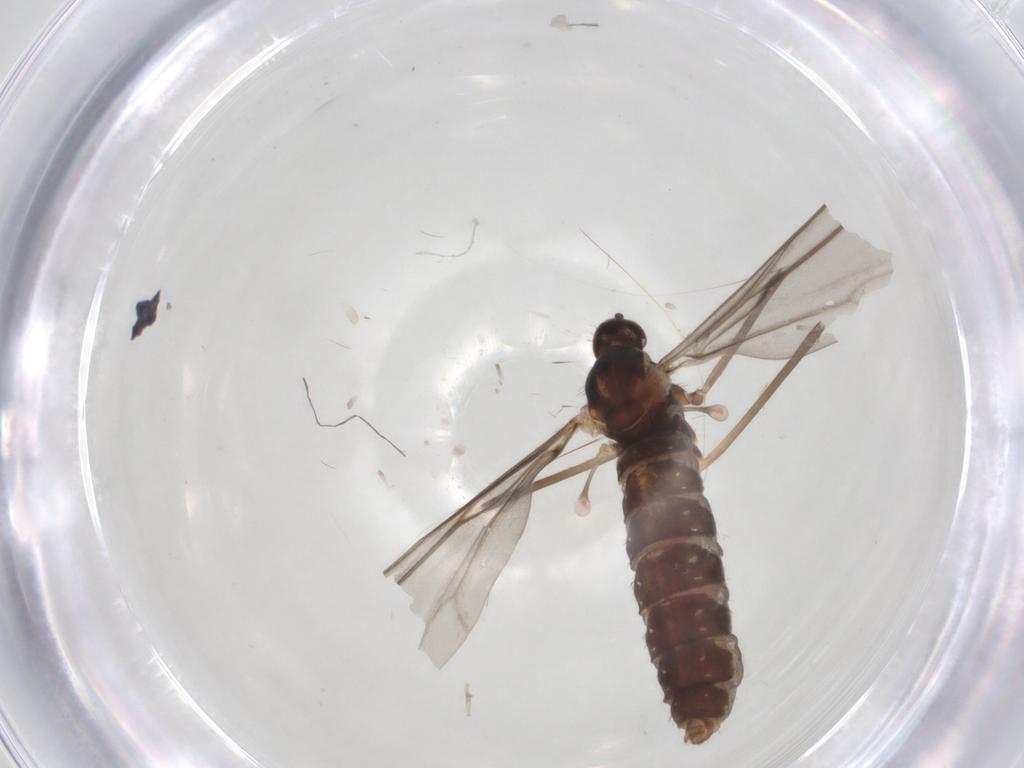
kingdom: Animalia
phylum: Arthropoda
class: Insecta
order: Diptera
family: Cecidomyiidae
